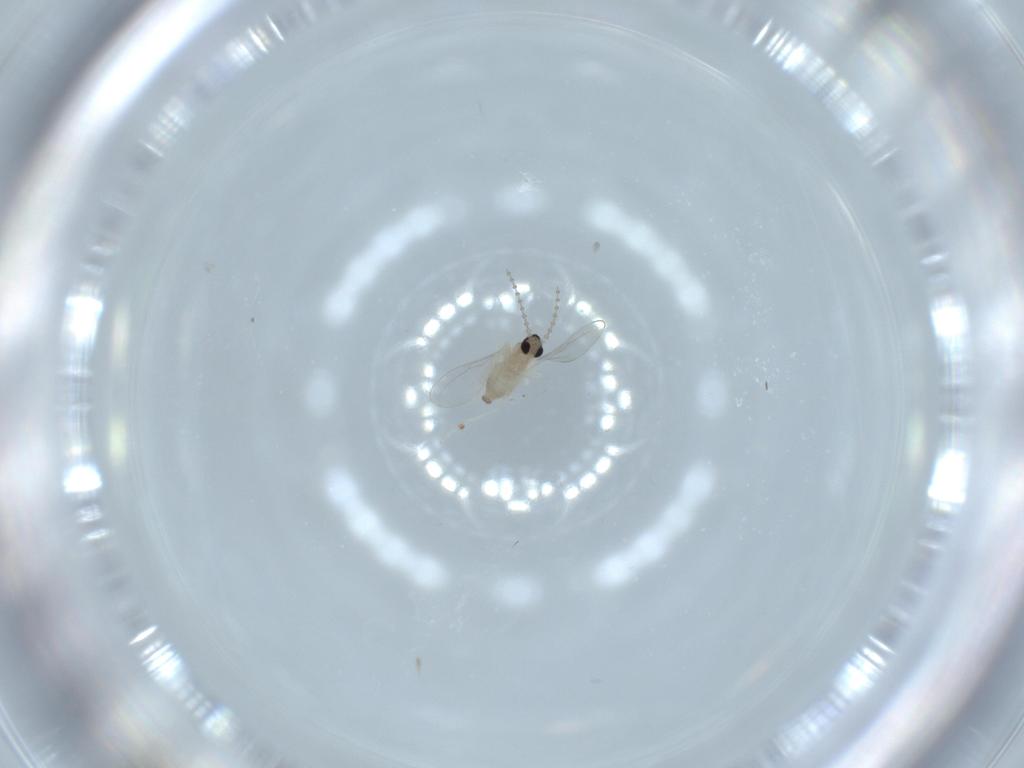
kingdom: Animalia
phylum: Arthropoda
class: Insecta
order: Diptera
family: Cecidomyiidae
